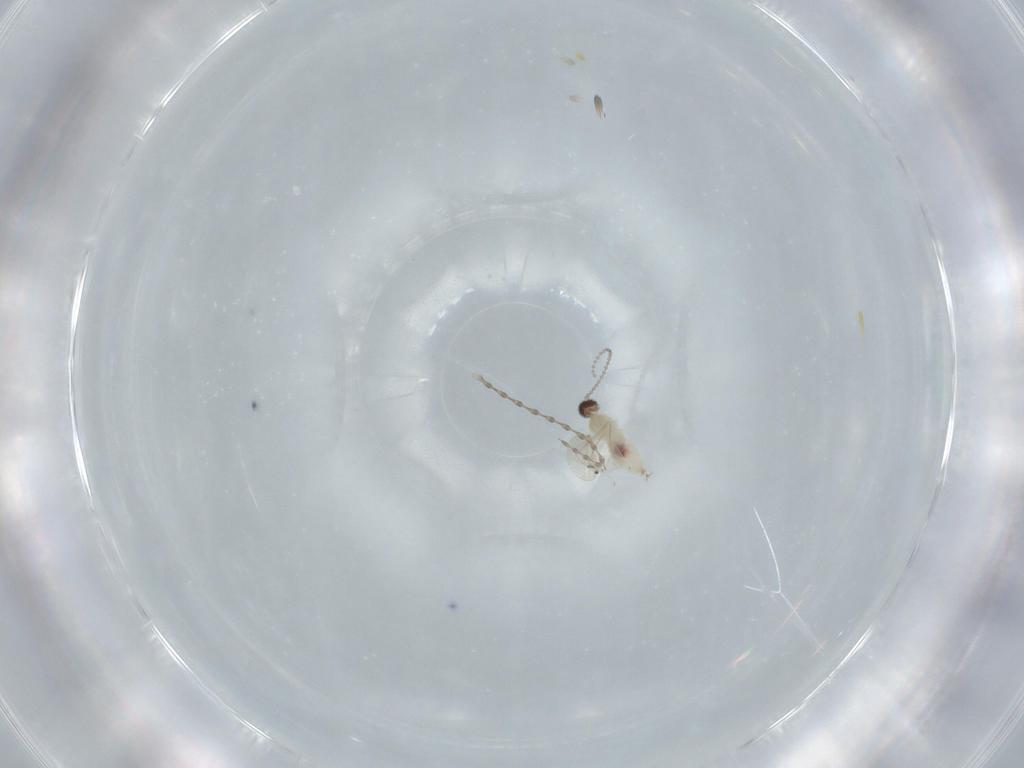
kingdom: Animalia
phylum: Arthropoda
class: Insecta
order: Diptera
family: Cecidomyiidae
